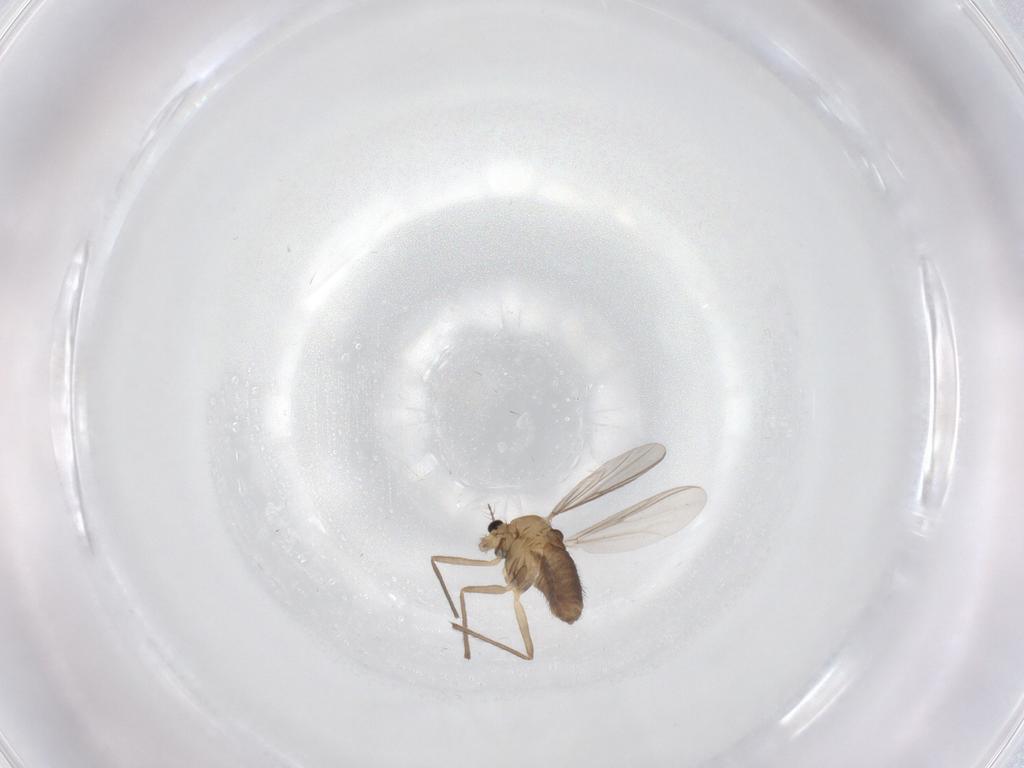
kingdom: Animalia
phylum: Arthropoda
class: Insecta
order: Diptera
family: Chironomidae
